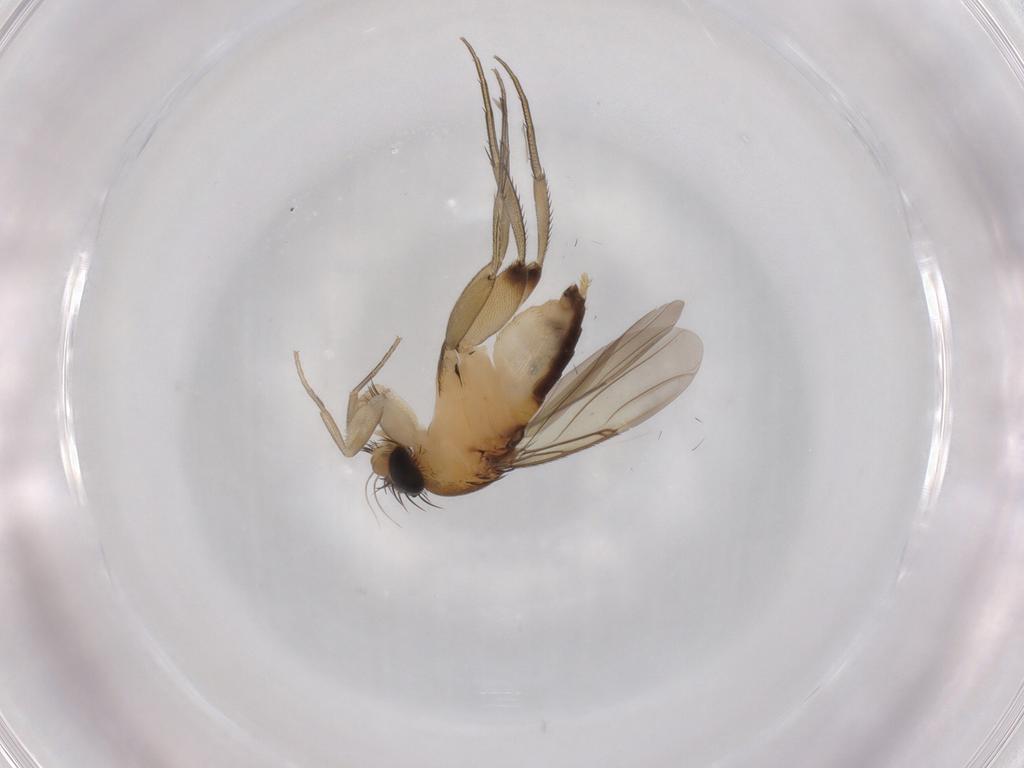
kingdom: Animalia
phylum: Arthropoda
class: Insecta
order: Diptera
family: Phoridae
